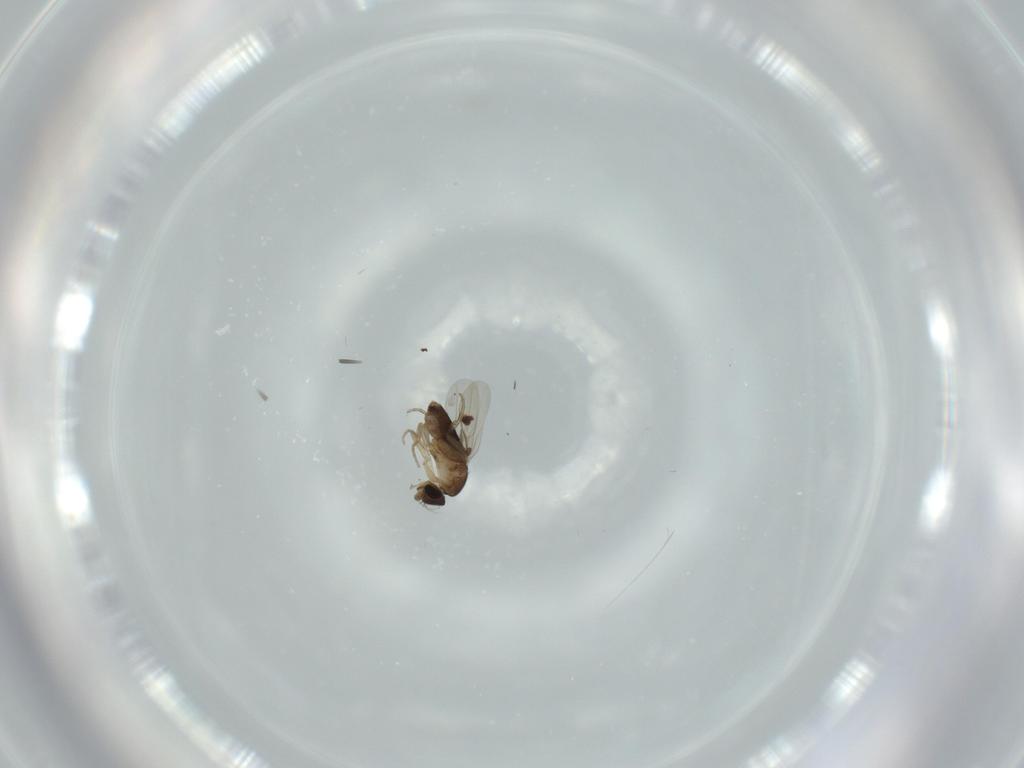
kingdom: Animalia
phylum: Arthropoda
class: Insecta
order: Diptera
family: Phoridae
